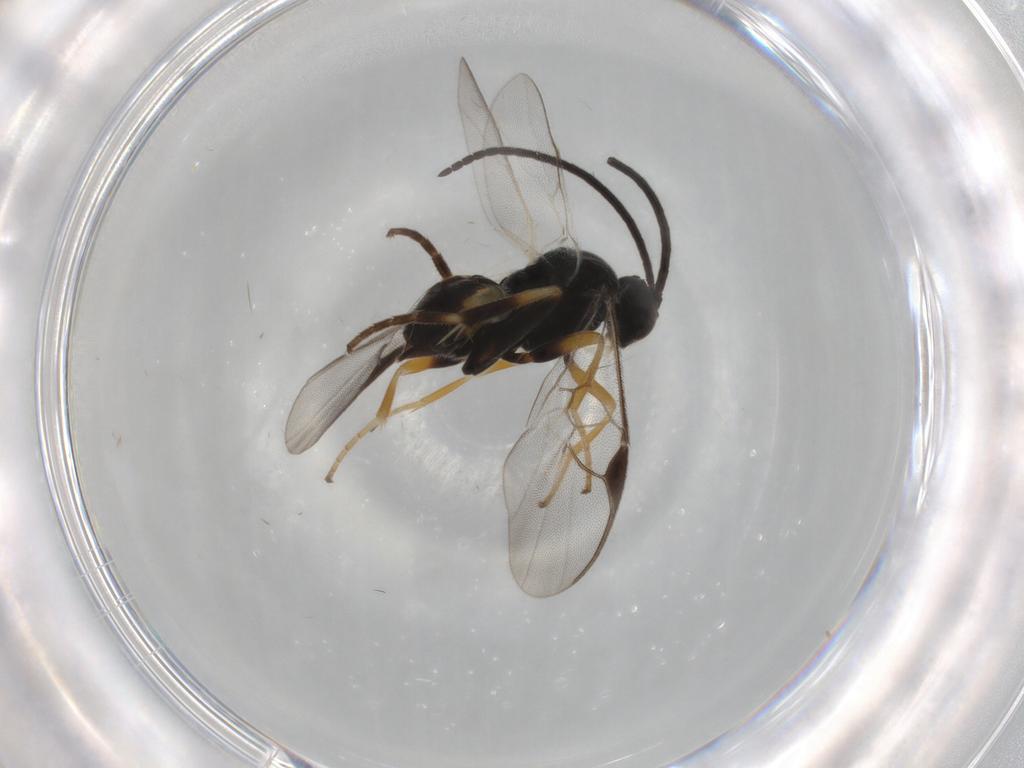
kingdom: Animalia
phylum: Arthropoda
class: Insecta
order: Hymenoptera
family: Braconidae
